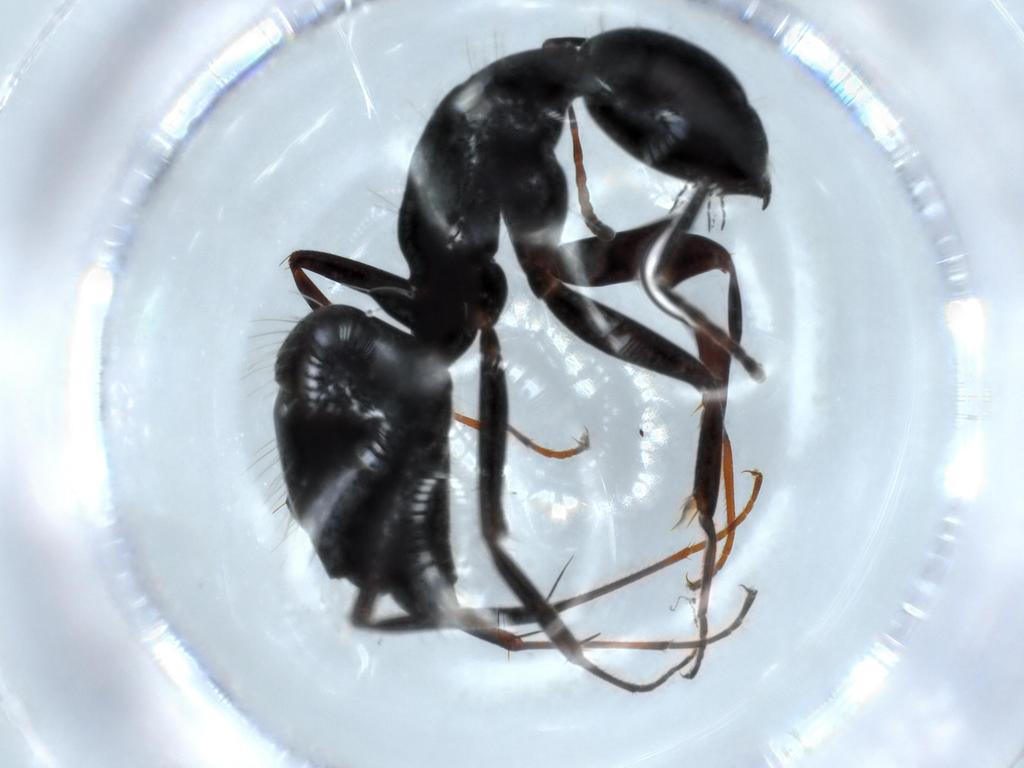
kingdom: Animalia
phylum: Arthropoda
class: Insecta
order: Hymenoptera
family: Formicidae
